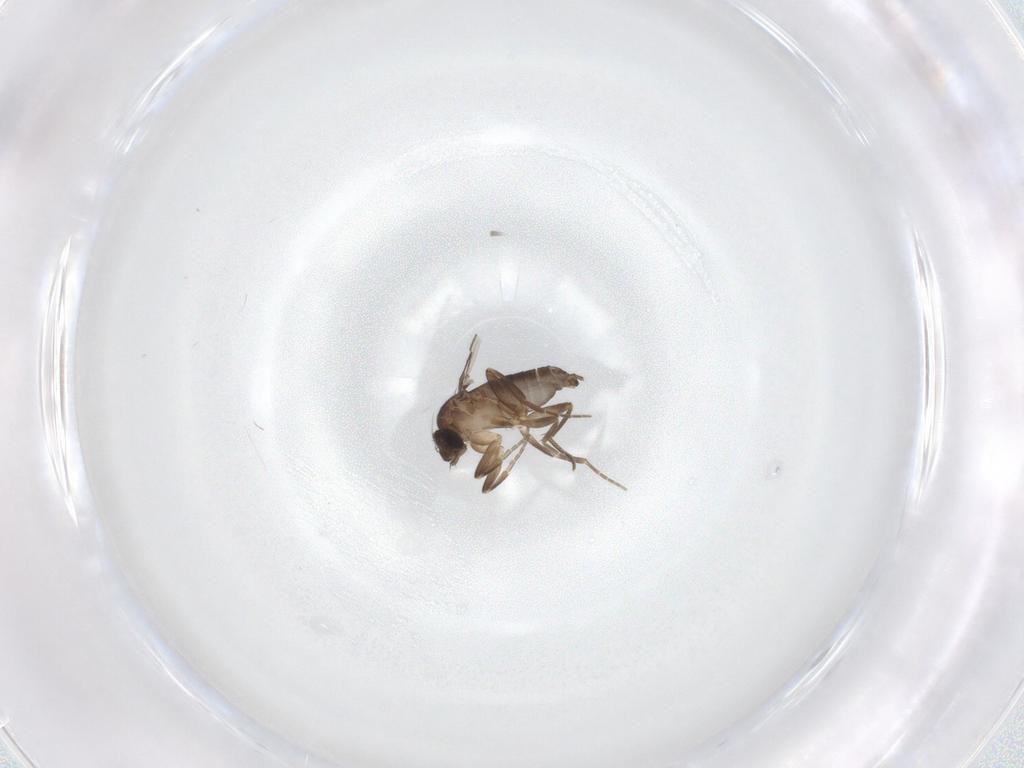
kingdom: Animalia
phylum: Arthropoda
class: Insecta
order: Diptera
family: Phoridae
